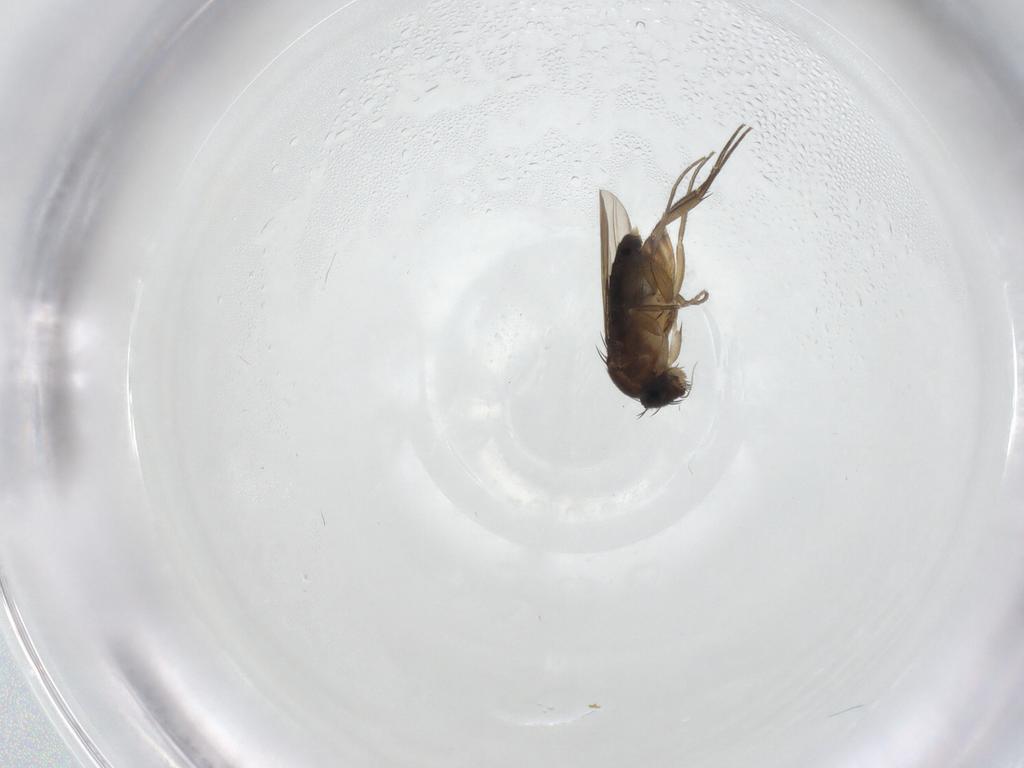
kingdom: Animalia
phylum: Arthropoda
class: Insecta
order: Diptera
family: Phoridae
